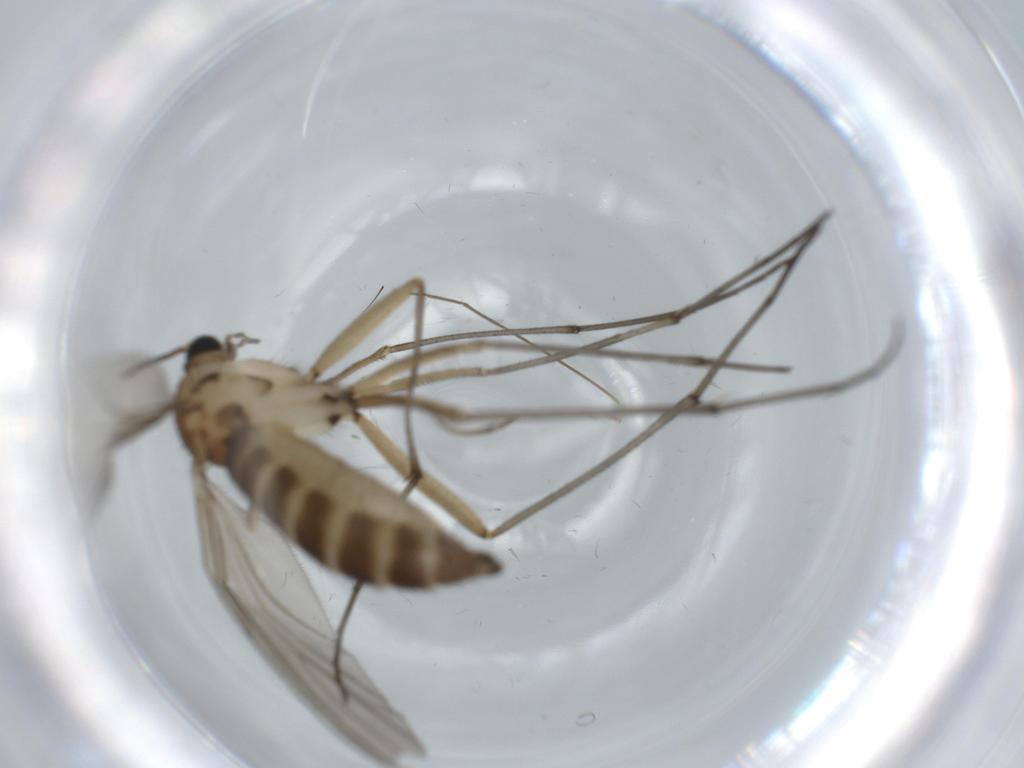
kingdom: Animalia
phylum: Arthropoda
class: Insecta
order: Diptera
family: Sciaridae
